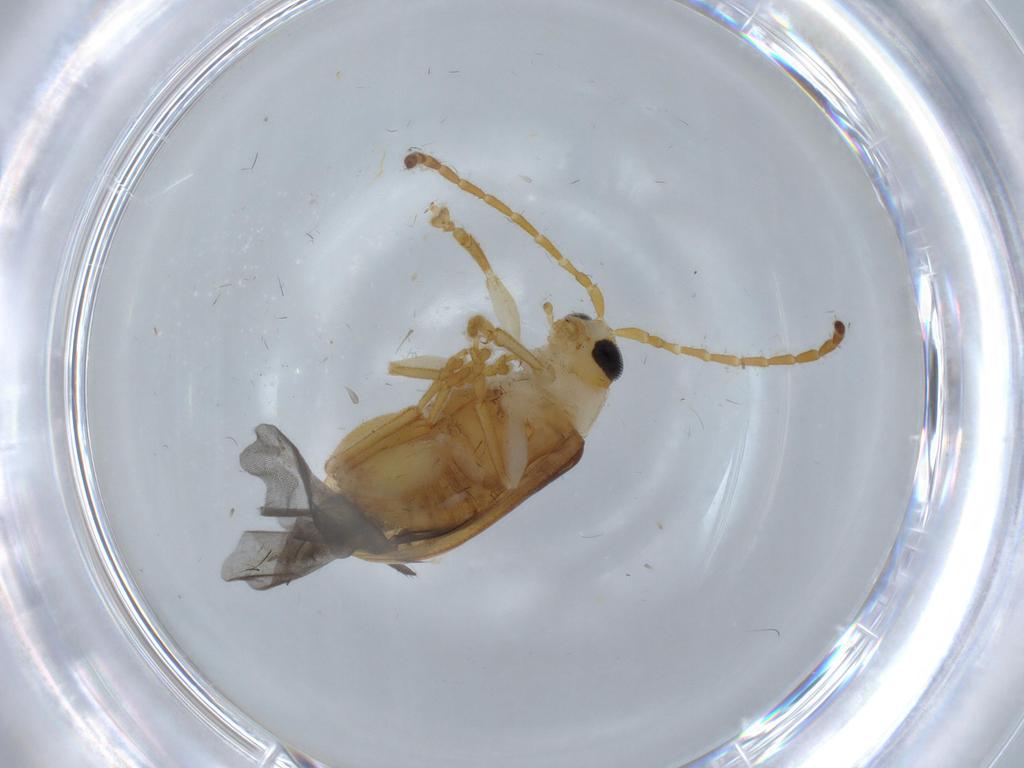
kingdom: Animalia
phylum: Arthropoda
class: Insecta
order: Coleoptera
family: Chrysomelidae
